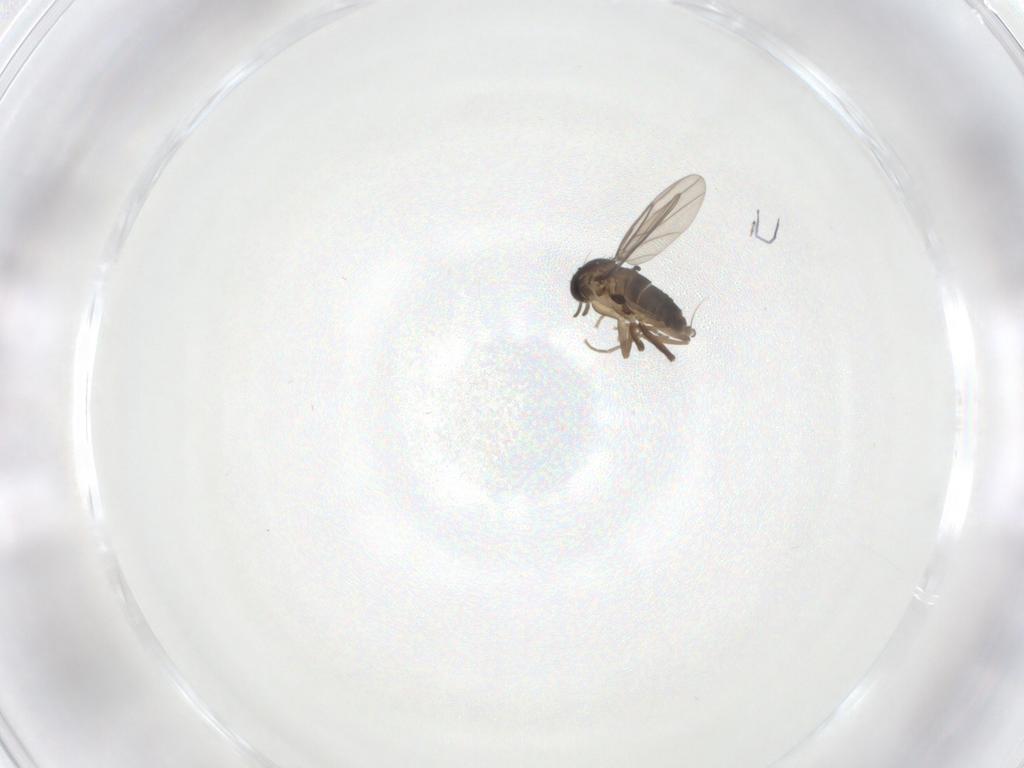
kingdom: Animalia
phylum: Arthropoda
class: Insecta
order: Diptera
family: Phoridae
